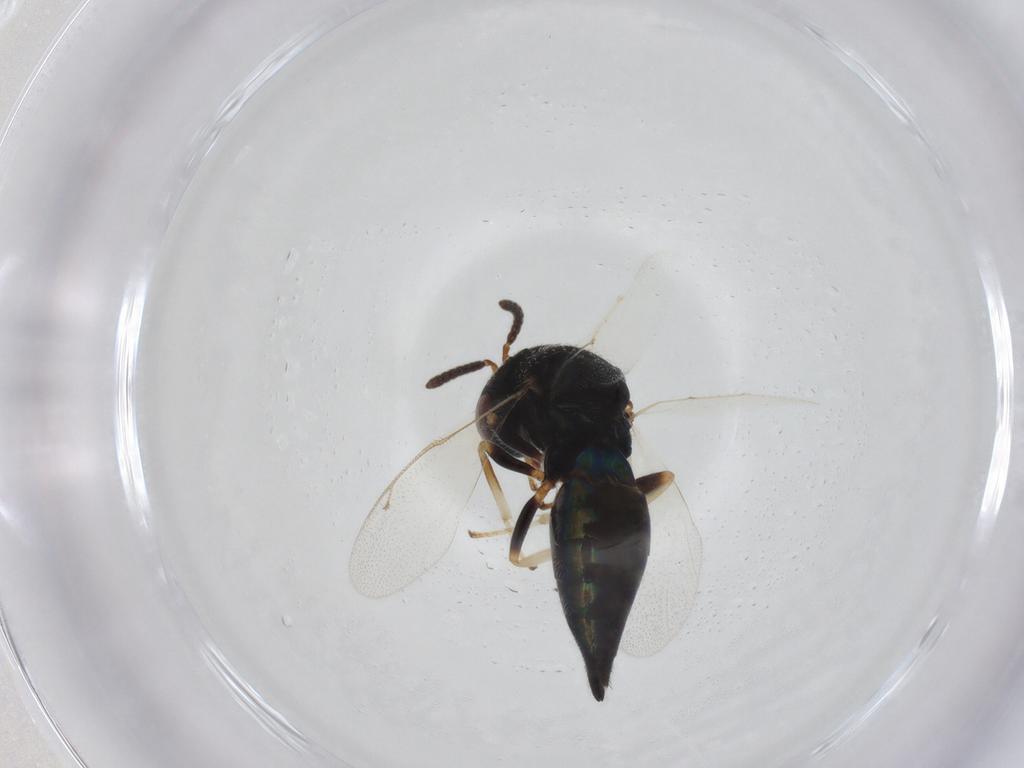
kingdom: Animalia
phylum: Arthropoda
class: Insecta
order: Hymenoptera
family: Pteromalidae
